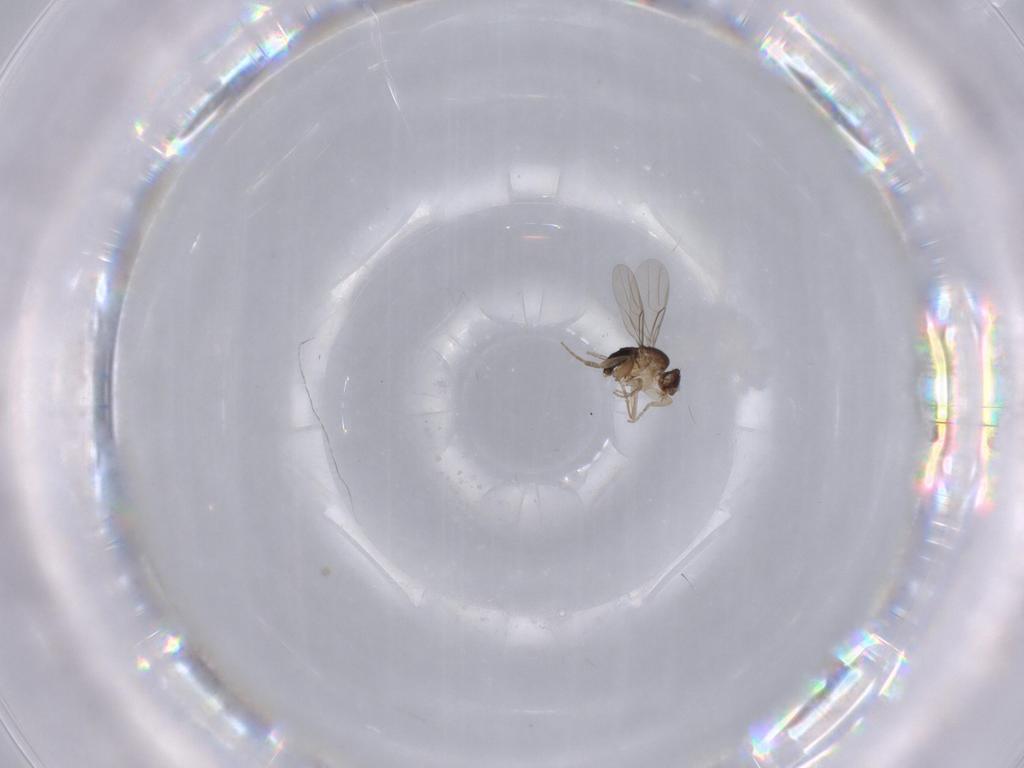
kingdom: Animalia
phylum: Arthropoda
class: Insecta
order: Diptera
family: Phoridae
